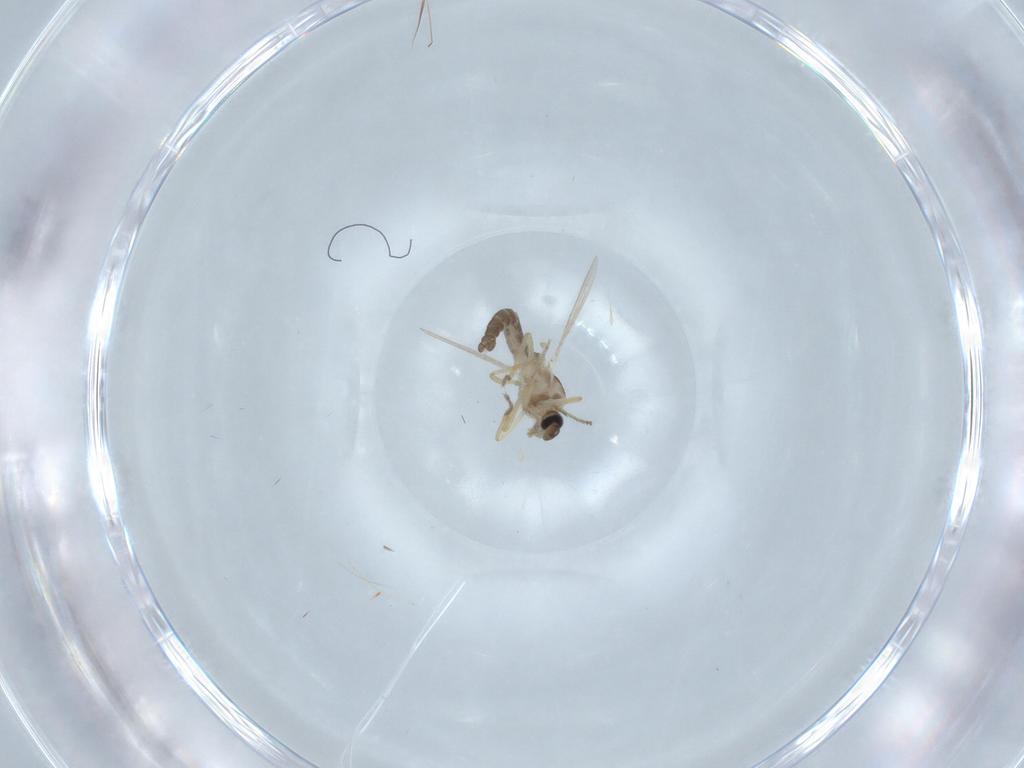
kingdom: Animalia
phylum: Arthropoda
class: Insecta
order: Diptera
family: Ceratopogonidae
